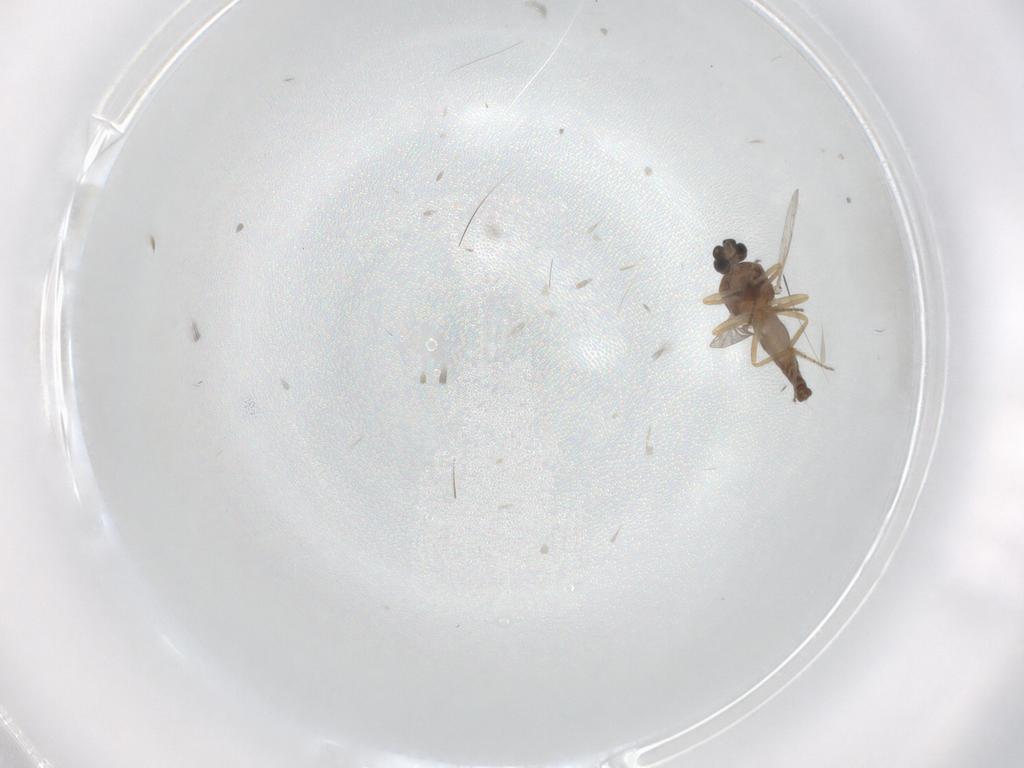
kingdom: Animalia
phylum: Arthropoda
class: Insecta
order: Diptera
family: Ceratopogonidae
